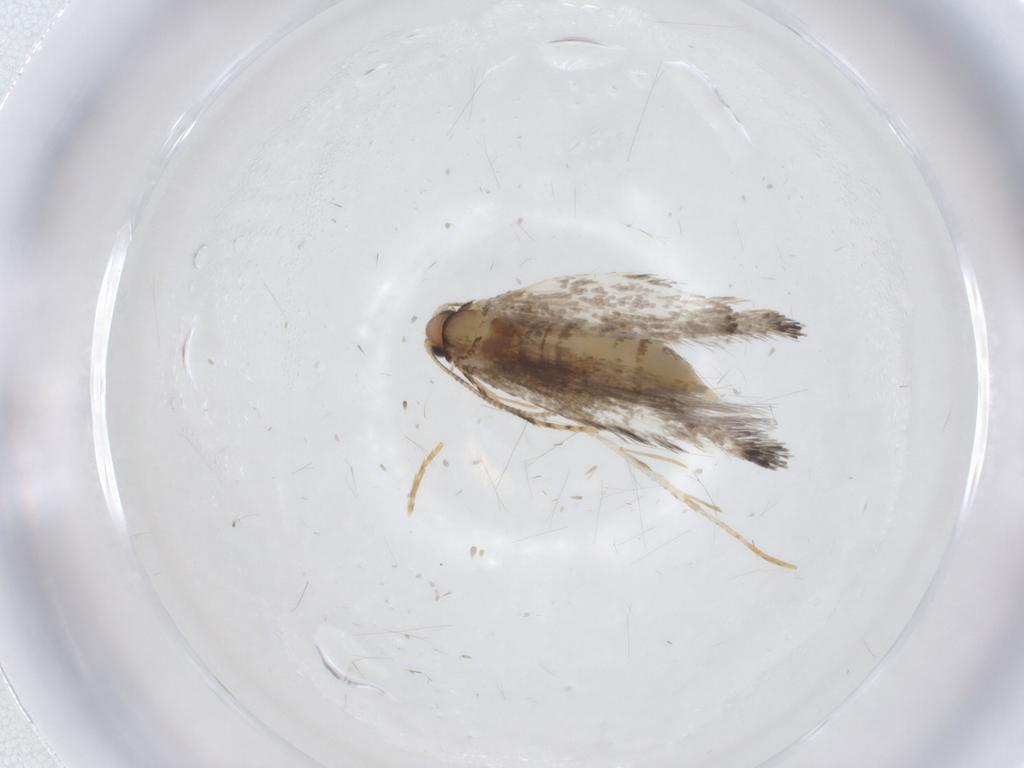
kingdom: Animalia
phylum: Arthropoda
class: Insecta
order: Lepidoptera
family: Tineidae
